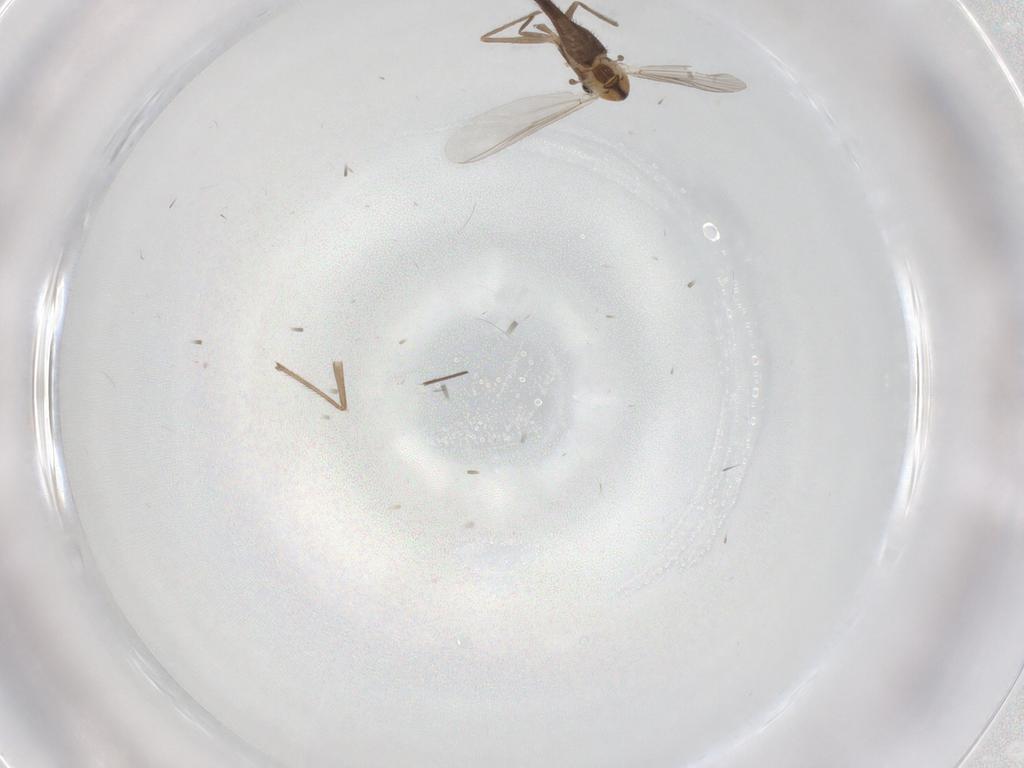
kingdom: Animalia
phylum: Arthropoda
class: Insecta
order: Diptera
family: Chironomidae
